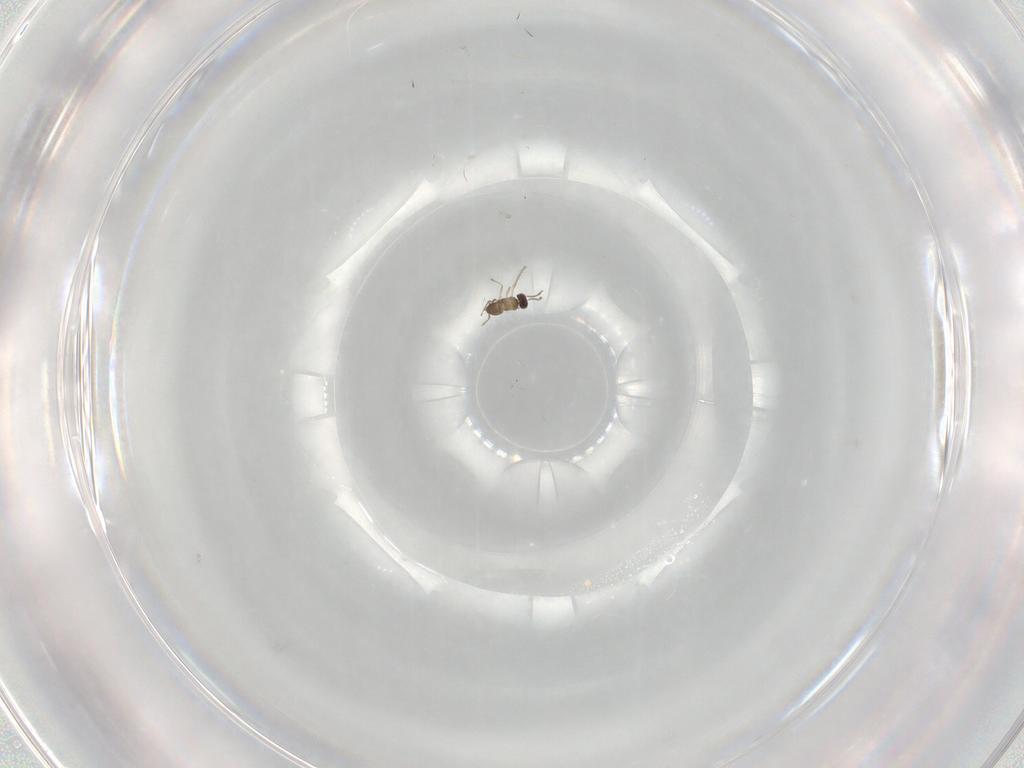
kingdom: Animalia
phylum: Arthropoda
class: Insecta
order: Hymenoptera
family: Mymaridae
